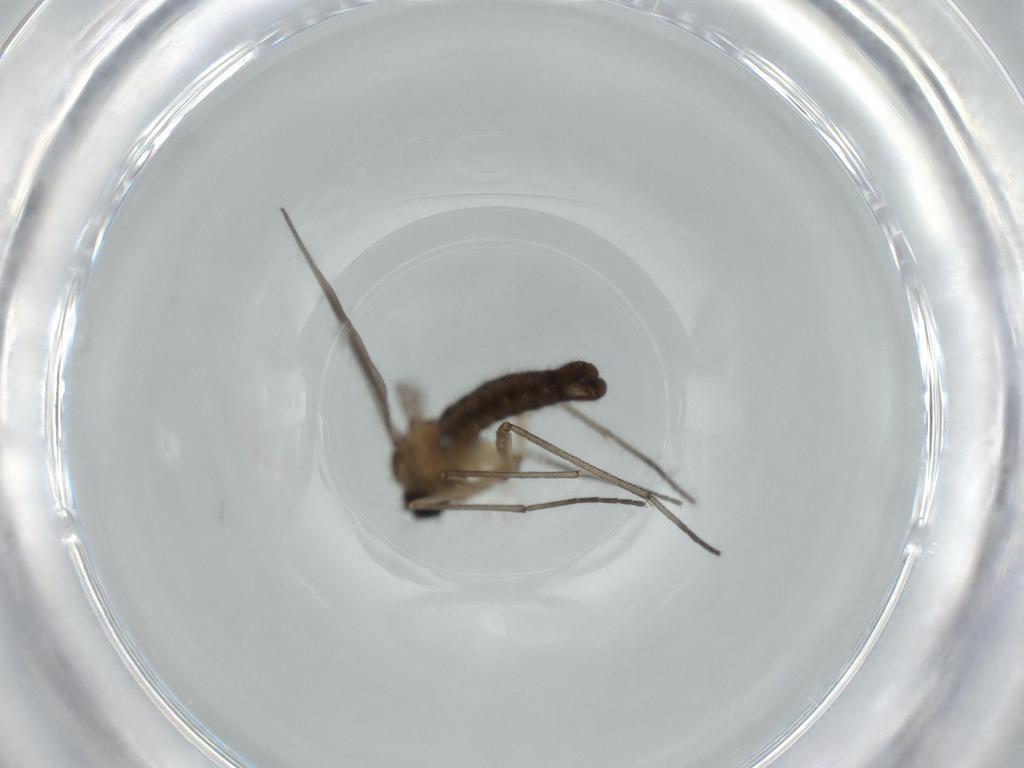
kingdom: Animalia
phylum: Arthropoda
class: Insecta
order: Diptera
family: Sciaridae
